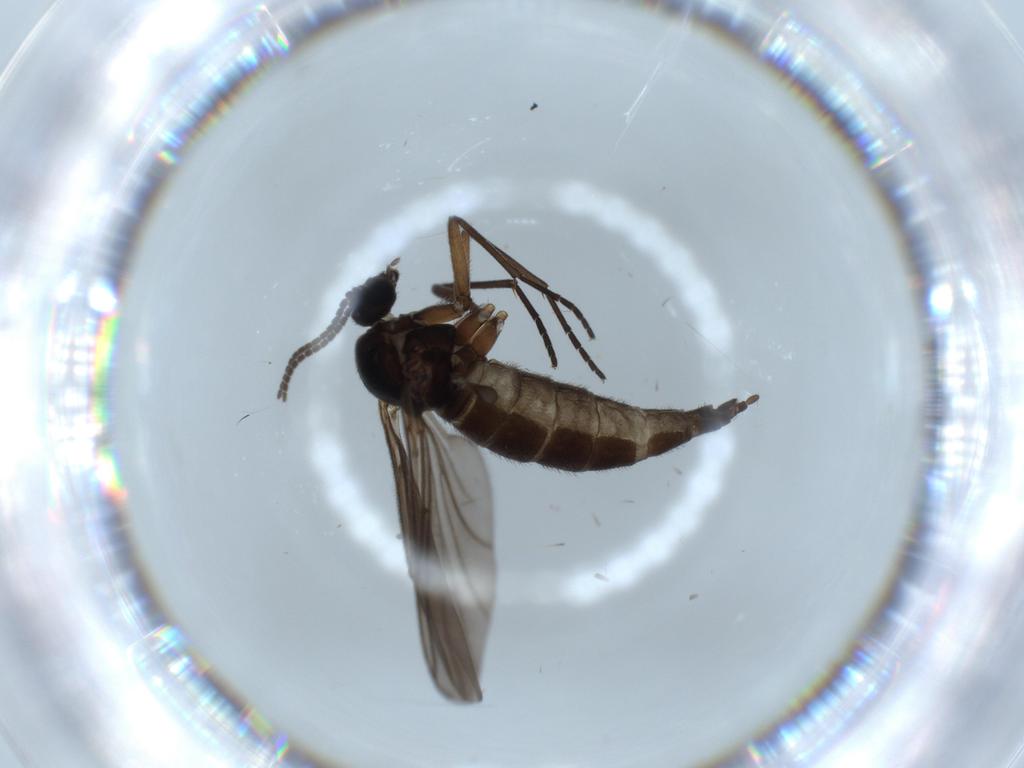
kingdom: Animalia
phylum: Arthropoda
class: Insecta
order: Diptera
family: Sciaridae
